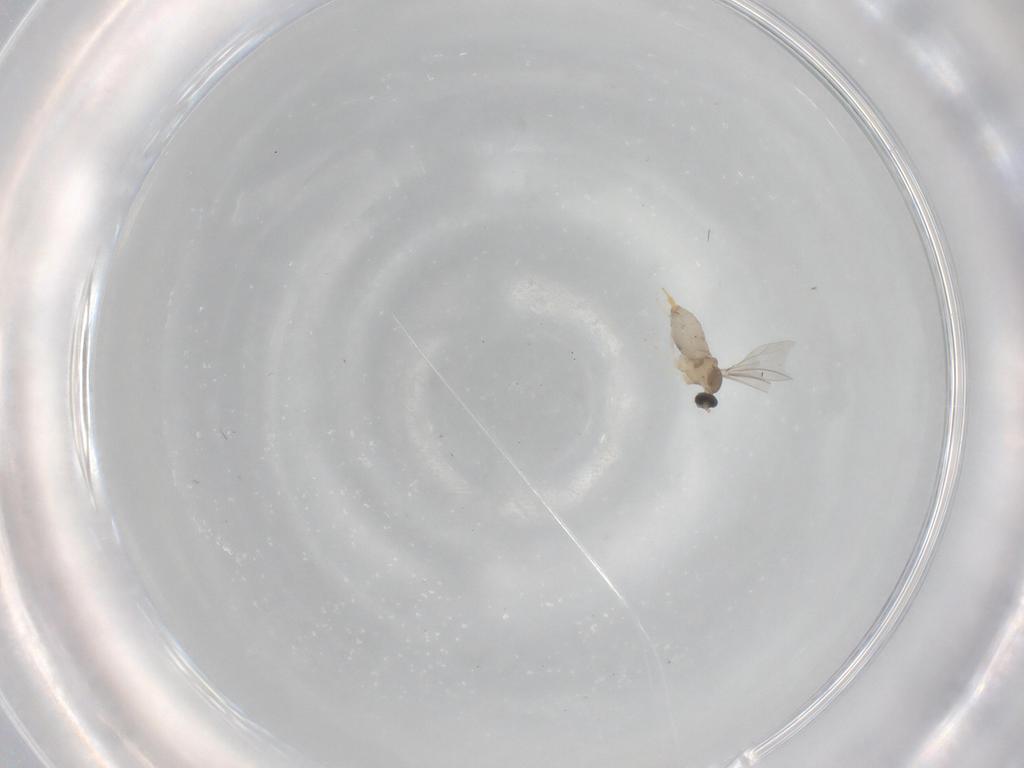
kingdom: Animalia
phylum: Arthropoda
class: Insecta
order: Diptera
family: Cecidomyiidae
